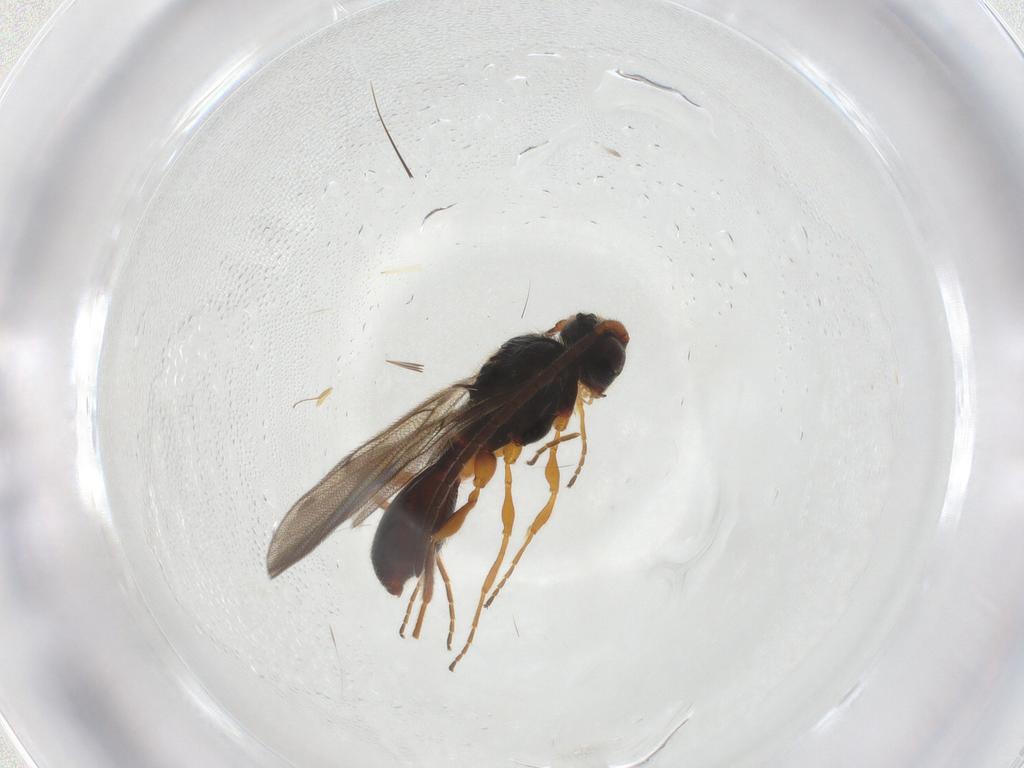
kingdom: Animalia
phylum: Arthropoda
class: Insecta
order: Hymenoptera
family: Diapriidae
